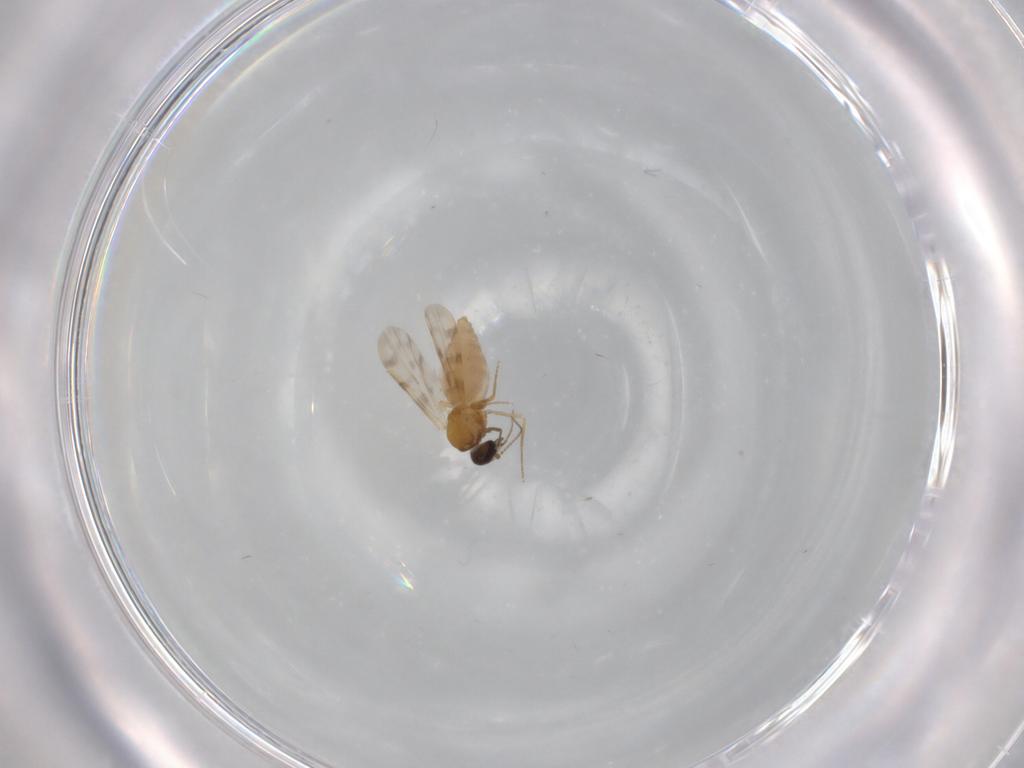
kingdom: Animalia
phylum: Arthropoda
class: Insecta
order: Diptera
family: Ceratopogonidae
